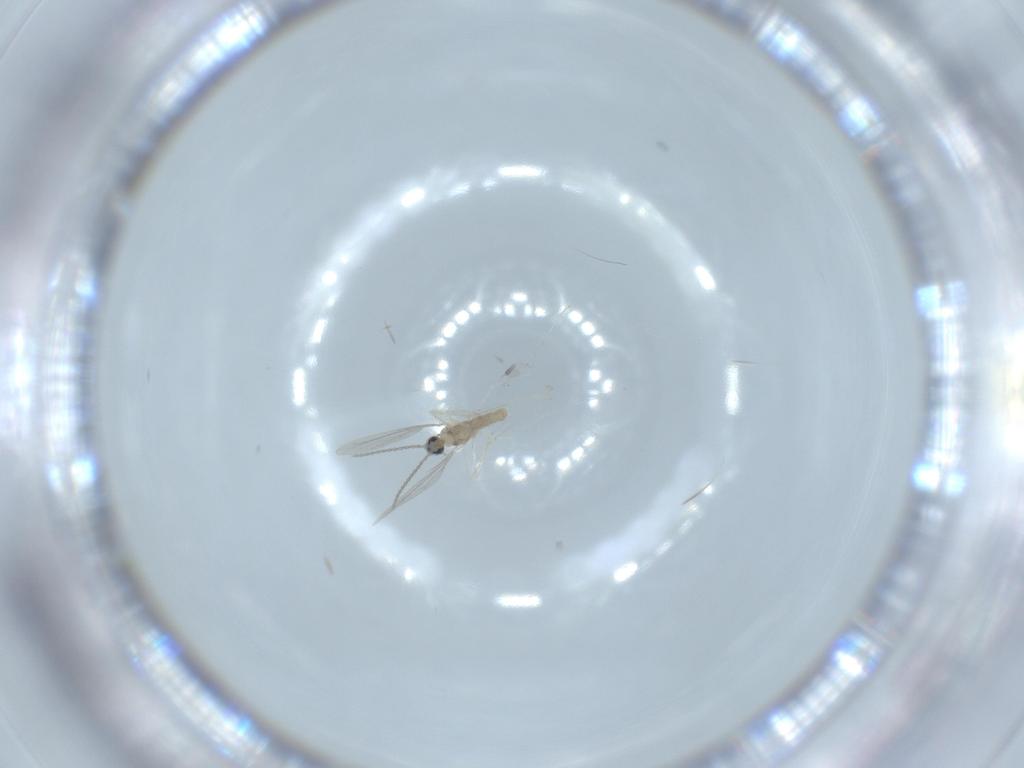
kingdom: Animalia
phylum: Arthropoda
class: Insecta
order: Diptera
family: Cecidomyiidae
